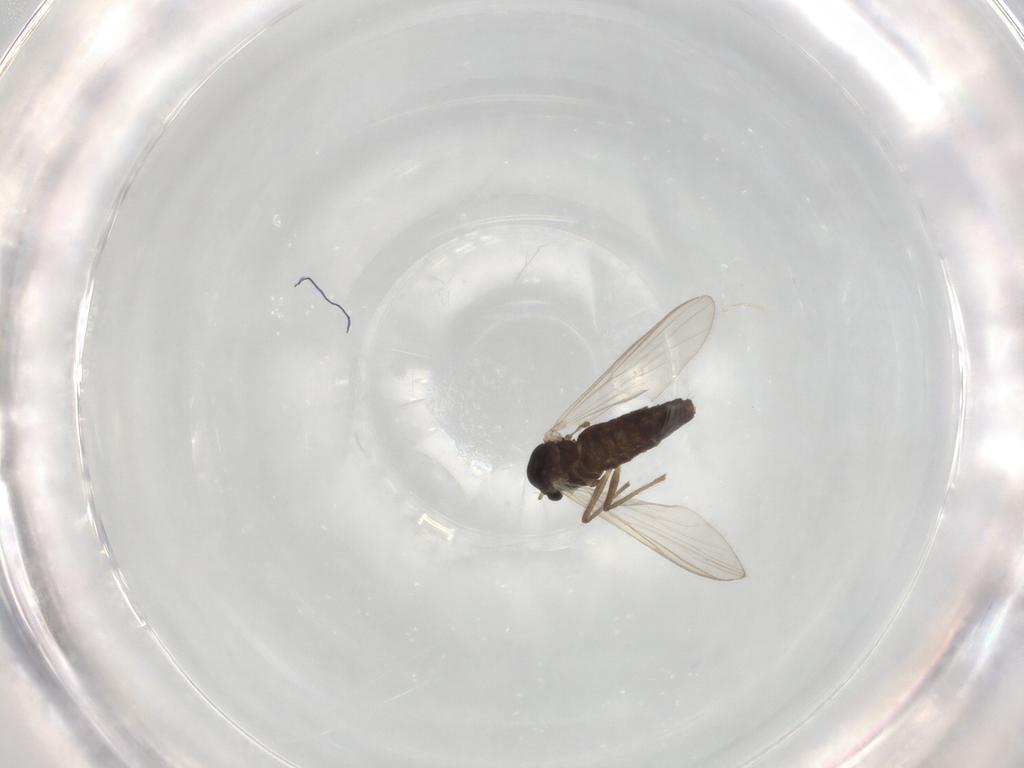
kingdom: Animalia
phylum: Arthropoda
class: Insecta
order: Diptera
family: Chironomidae
